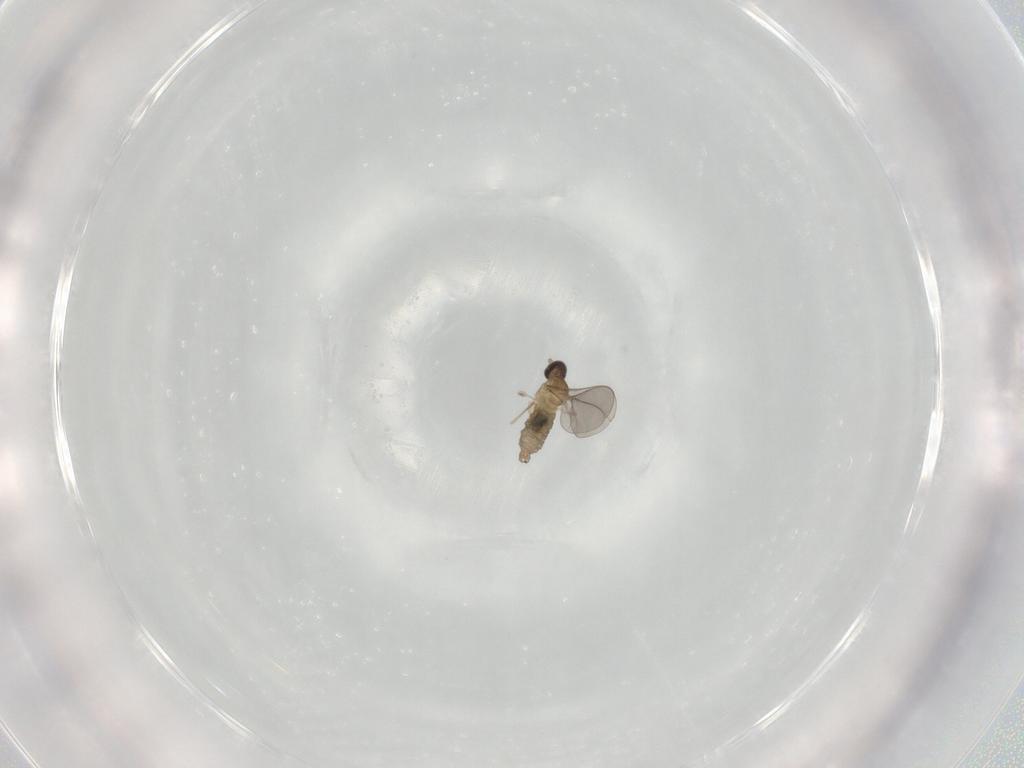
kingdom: Animalia
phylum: Arthropoda
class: Insecta
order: Diptera
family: Cecidomyiidae
